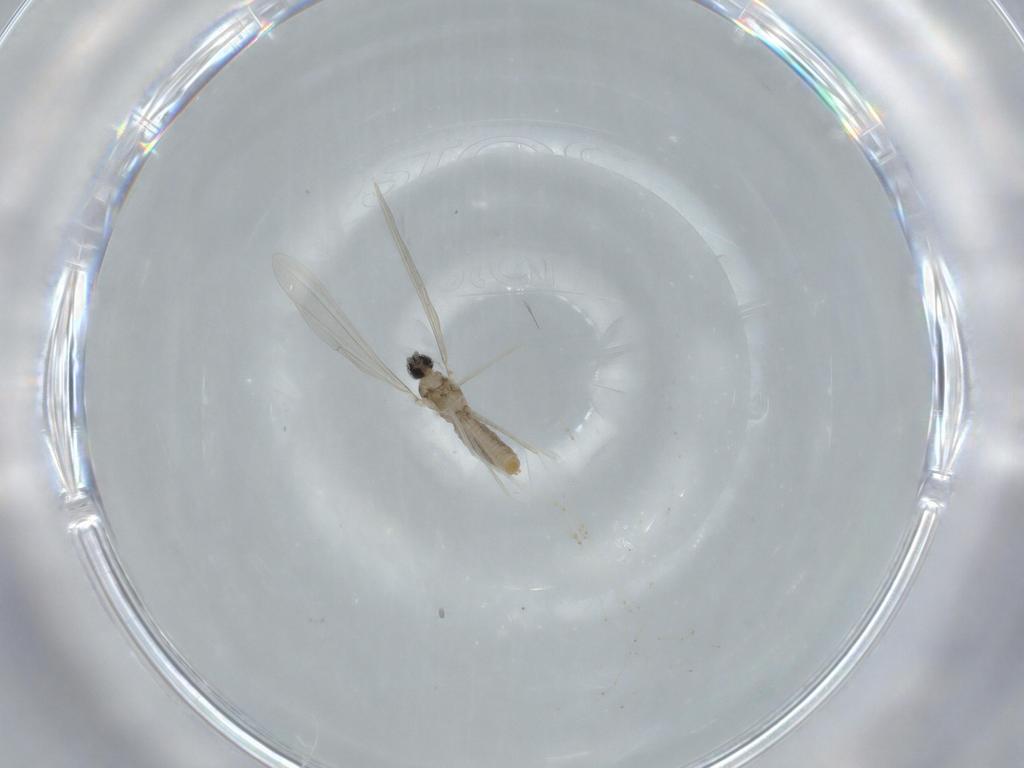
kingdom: Animalia
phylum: Arthropoda
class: Insecta
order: Diptera
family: Cecidomyiidae
